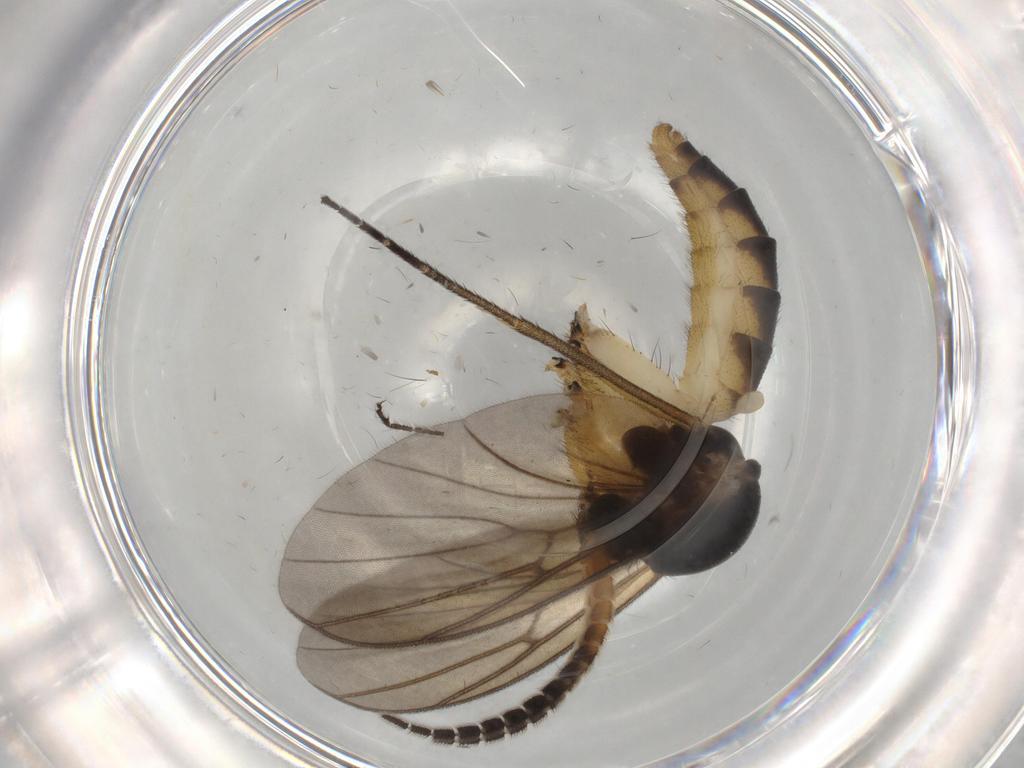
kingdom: Animalia
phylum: Arthropoda
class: Insecta
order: Diptera
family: Mycetophilidae
